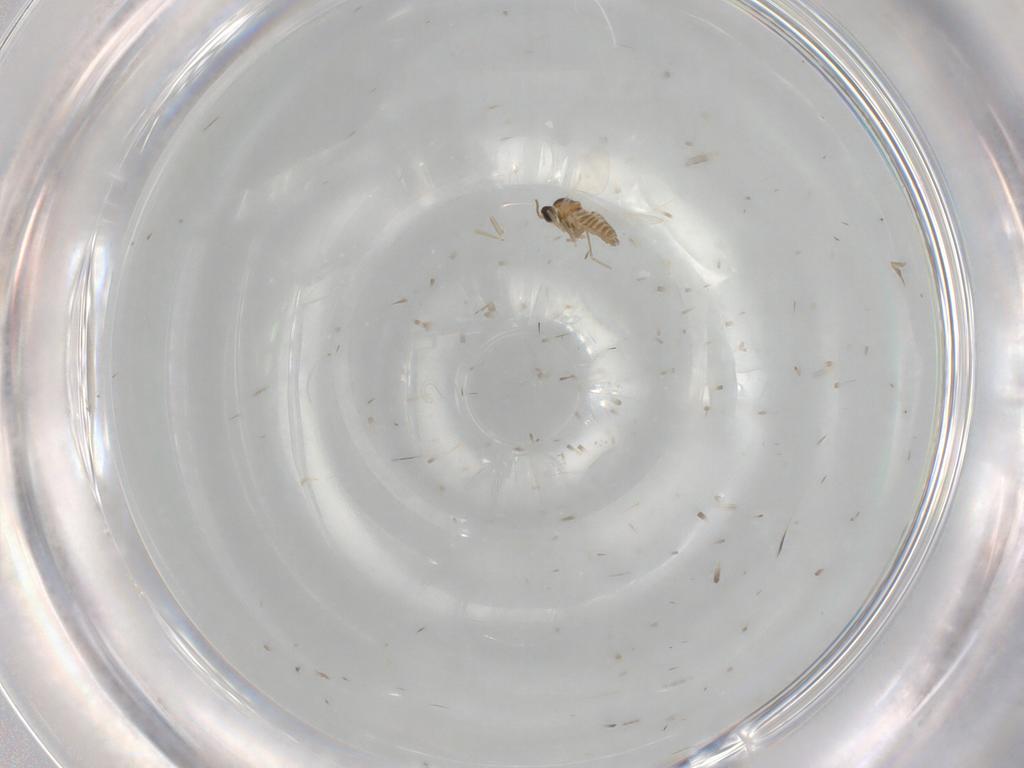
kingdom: Animalia
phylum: Arthropoda
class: Insecta
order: Diptera
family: Cecidomyiidae
